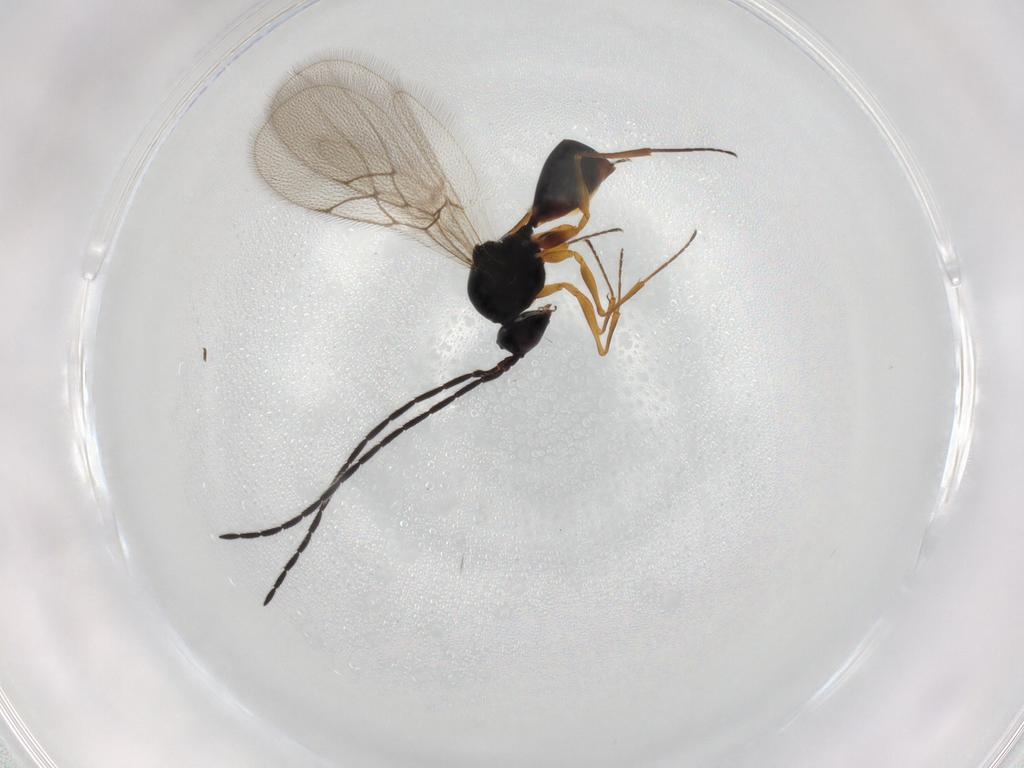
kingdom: Animalia
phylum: Arthropoda
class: Insecta
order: Hymenoptera
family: Figitidae
